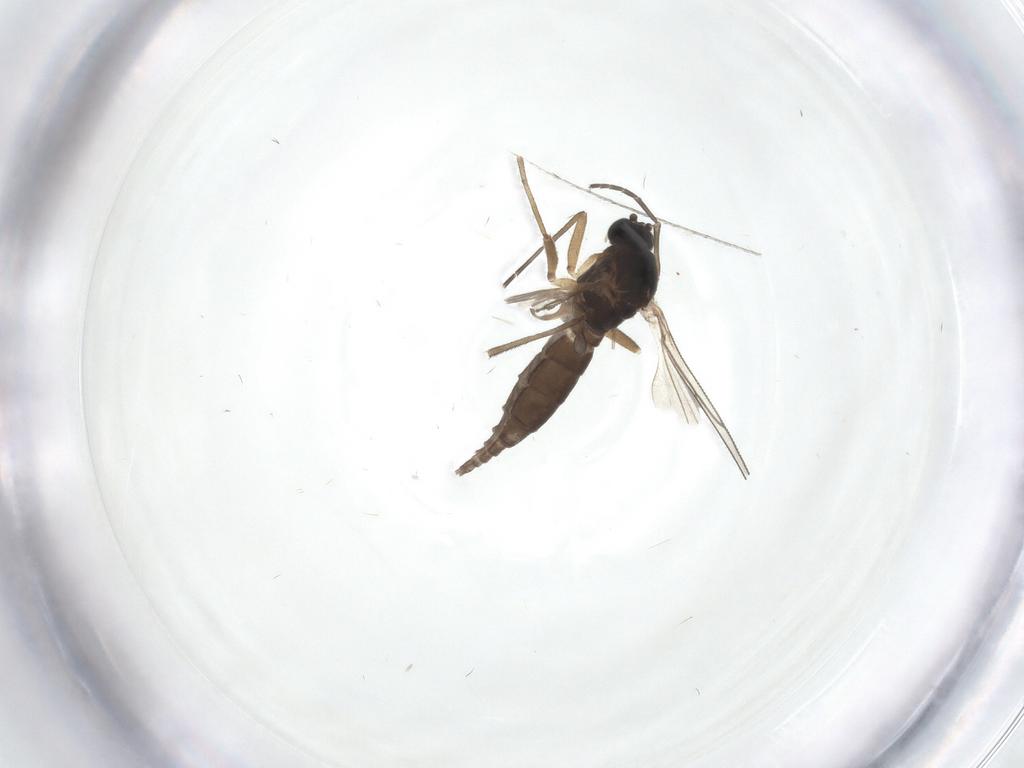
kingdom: Animalia
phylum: Arthropoda
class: Insecta
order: Diptera
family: Sciaridae
